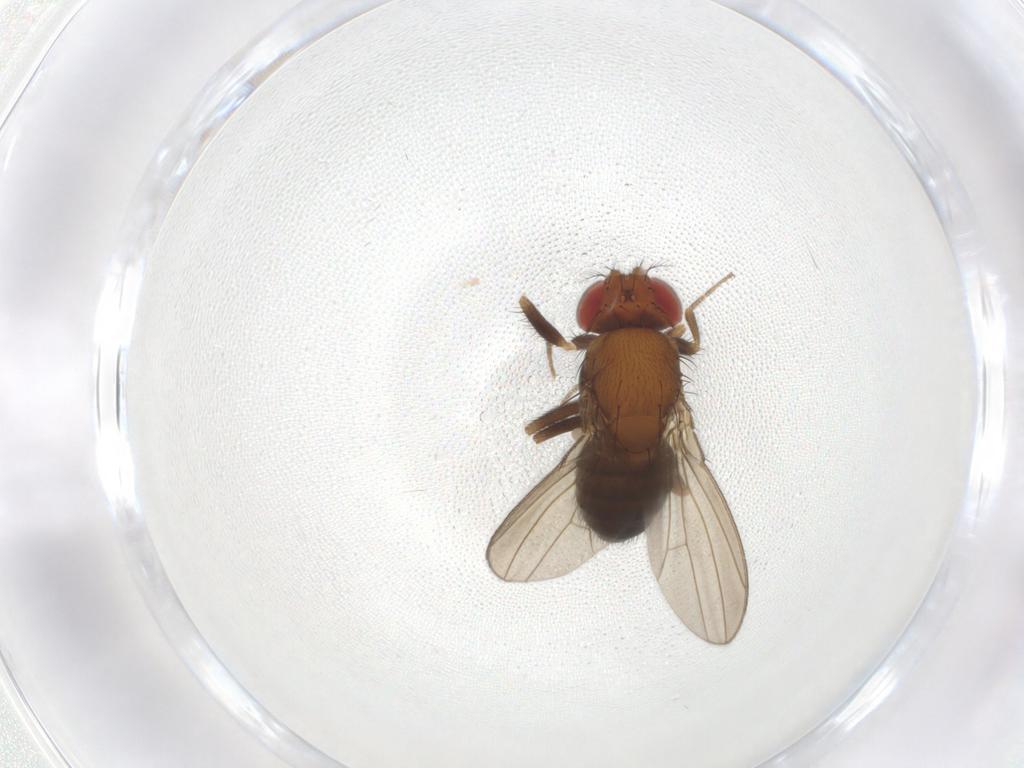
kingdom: Animalia
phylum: Arthropoda
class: Insecta
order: Diptera
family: Drosophilidae
